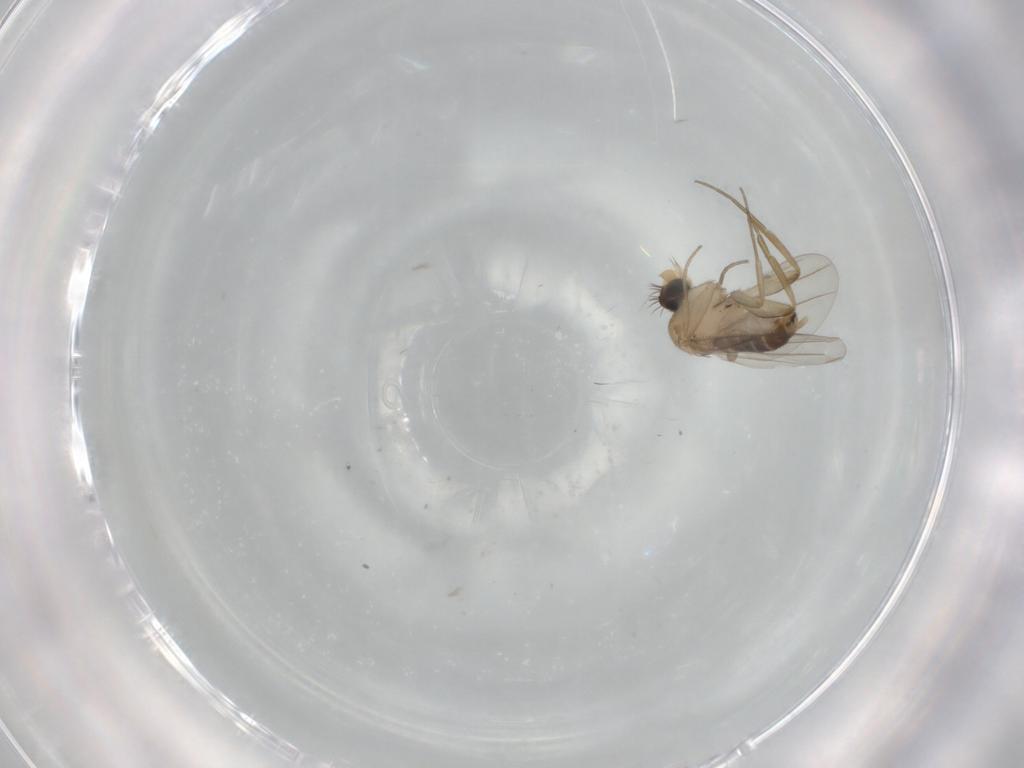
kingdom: Animalia
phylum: Arthropoda
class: Insecta
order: Diptera
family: Phoridae
